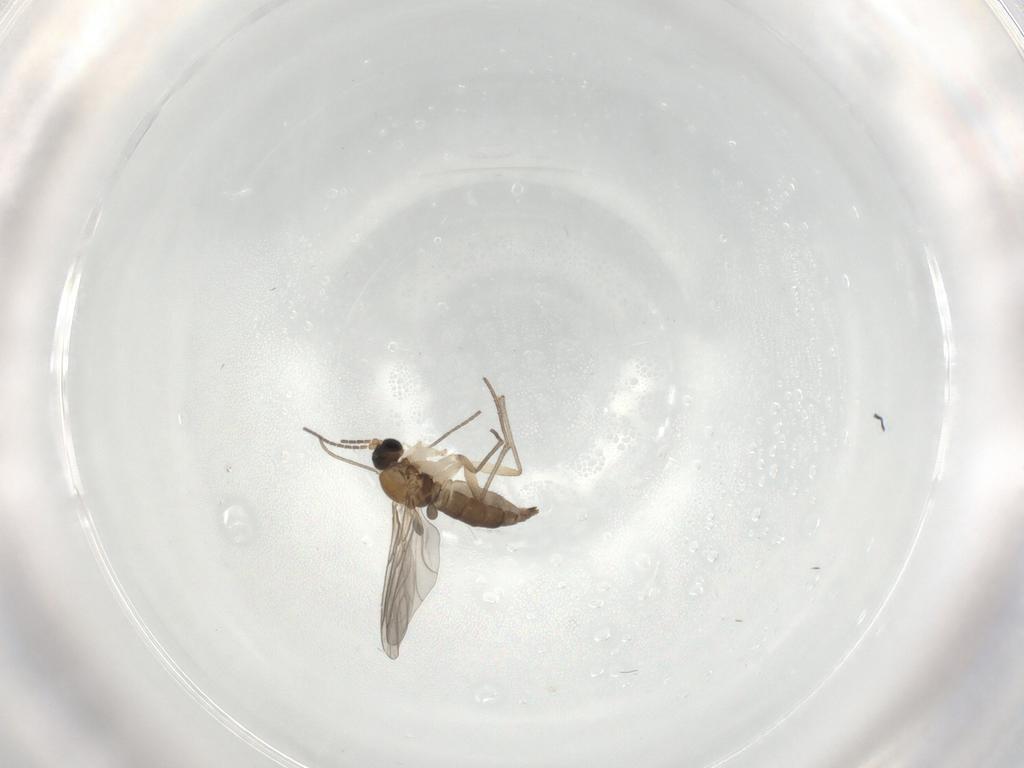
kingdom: Animalia
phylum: Arthropoda
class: Insecta
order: Diptera
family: Sciaridae
